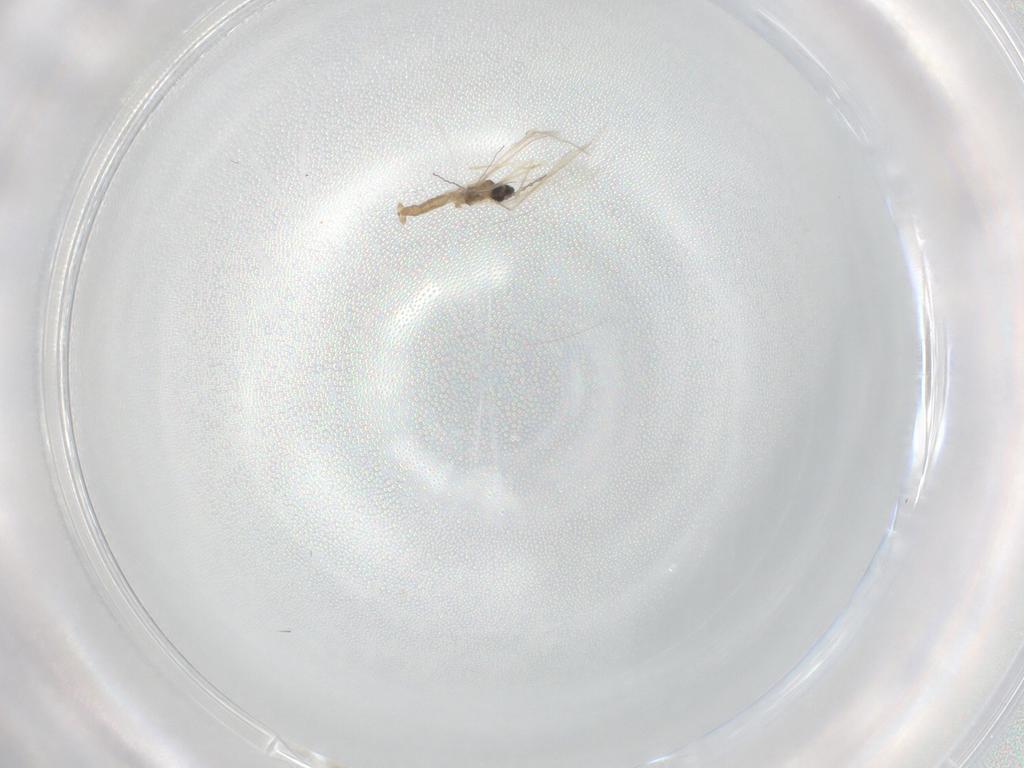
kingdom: Animalia
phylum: Arthropoda
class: Insecta
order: Diptera
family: Cecidomyiidae
